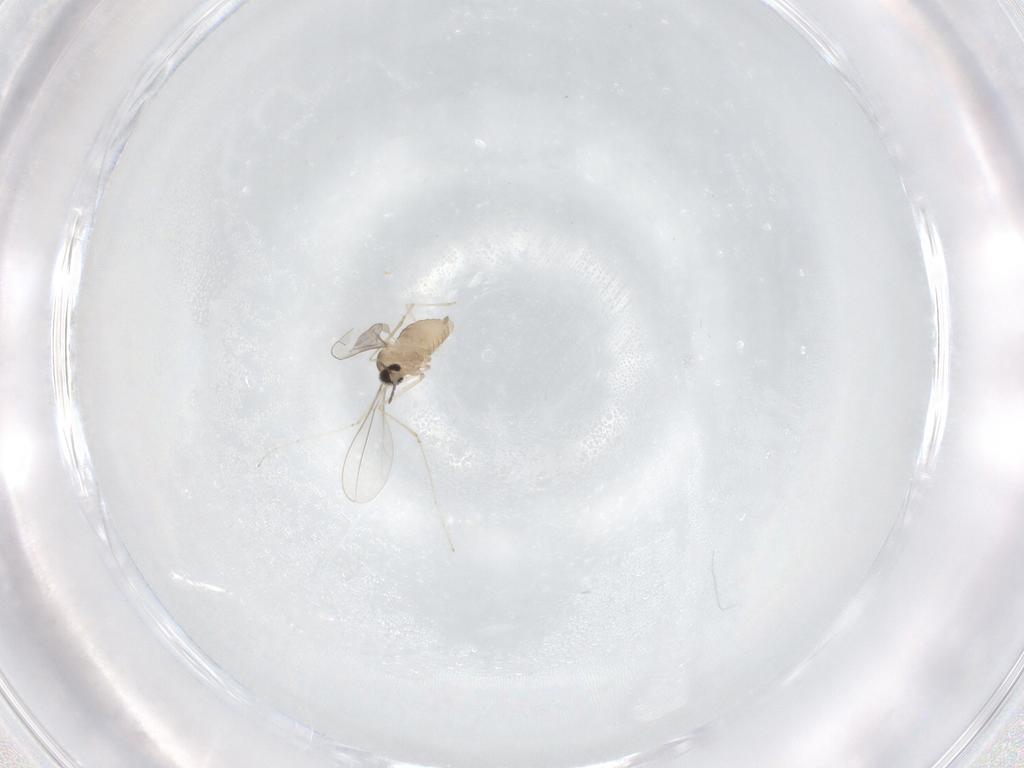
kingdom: Animalia
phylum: Arthropoda
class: Insecta
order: Diptera
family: Cecidomyiidae
